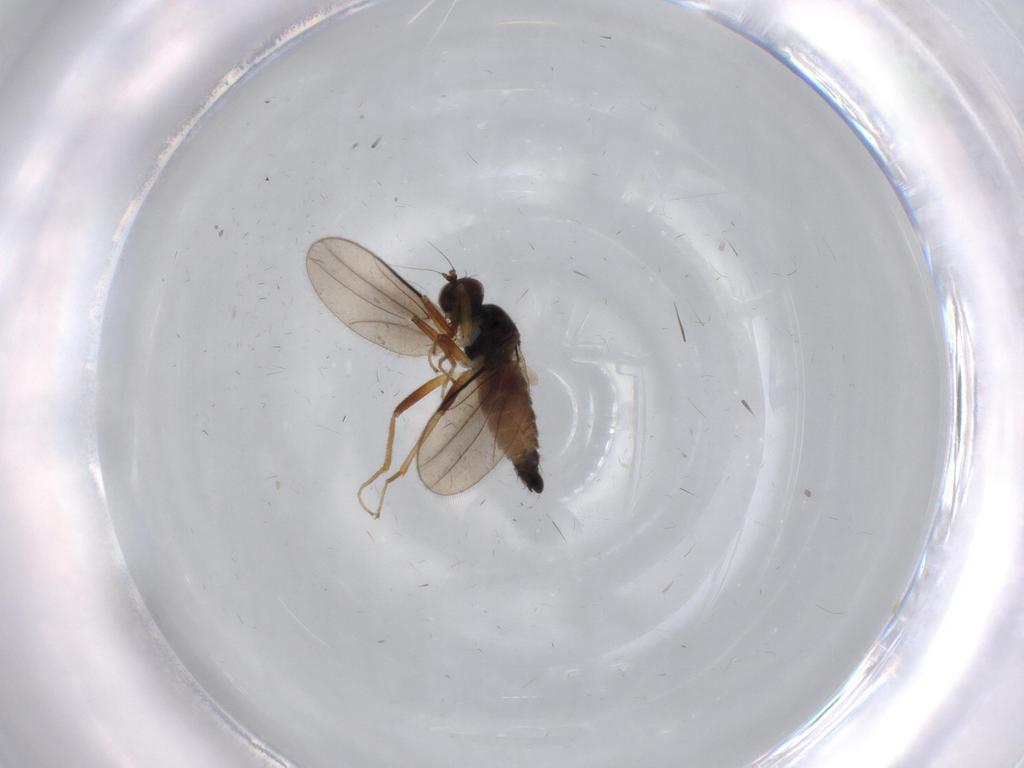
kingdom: Animalia
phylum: Arthropoda
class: Insecta
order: Diptera
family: Hybotidae
